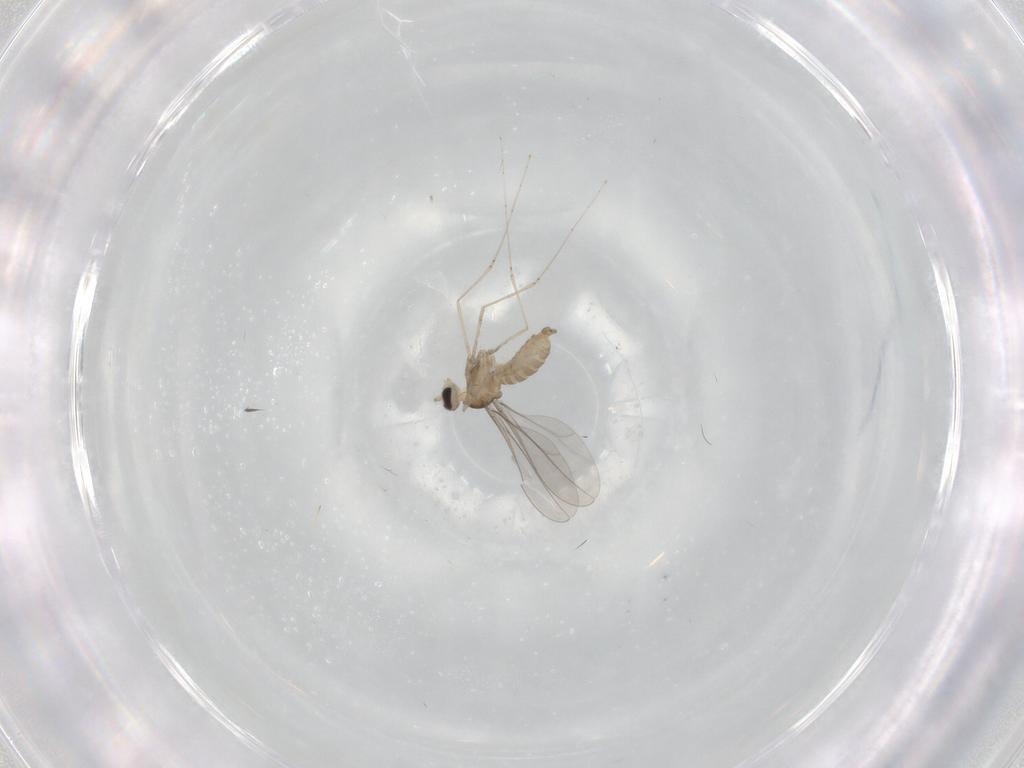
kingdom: Animalia
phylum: Arthropoda
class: Insecta
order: Diptera
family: Cecidomyiidae
